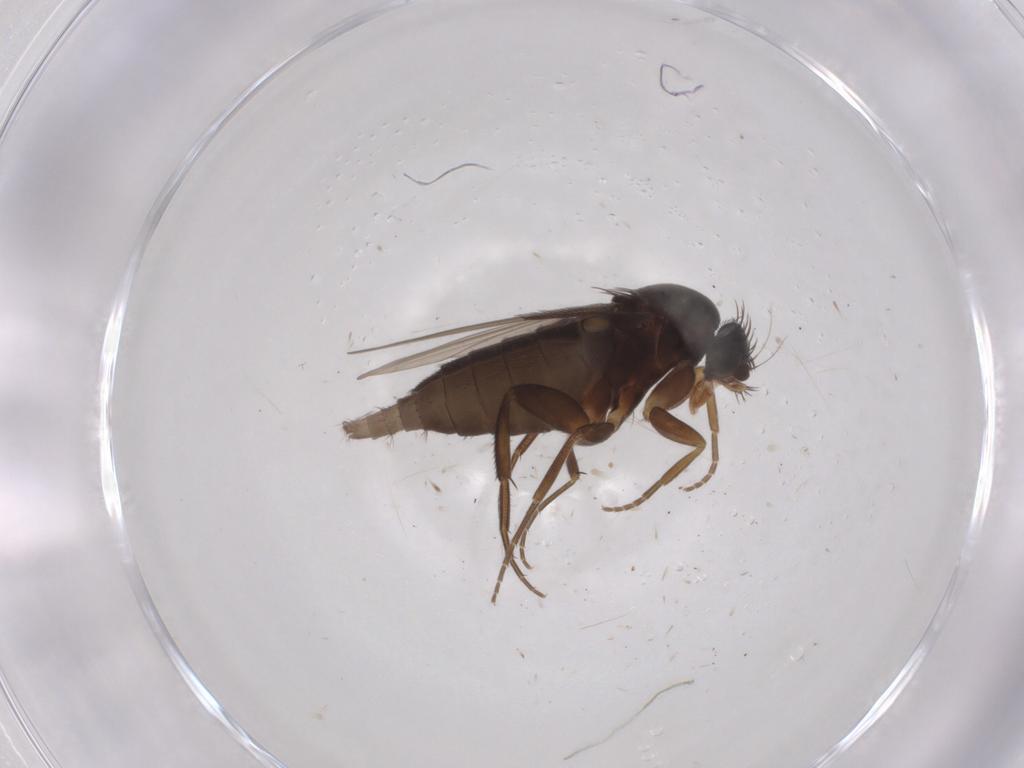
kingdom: Animalia
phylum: Arthropoda
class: Insecta
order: Diptera
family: Phoridae
